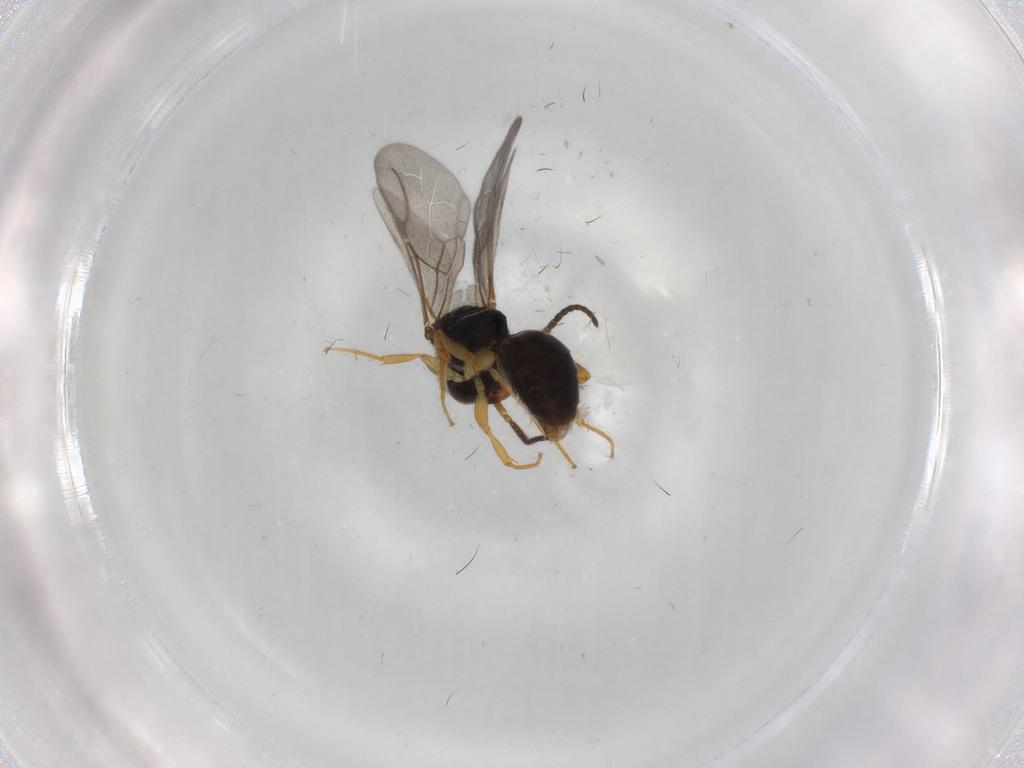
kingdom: Animalia
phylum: Arthropoda
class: Insecta
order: Hymenoptera
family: Bethylidae
